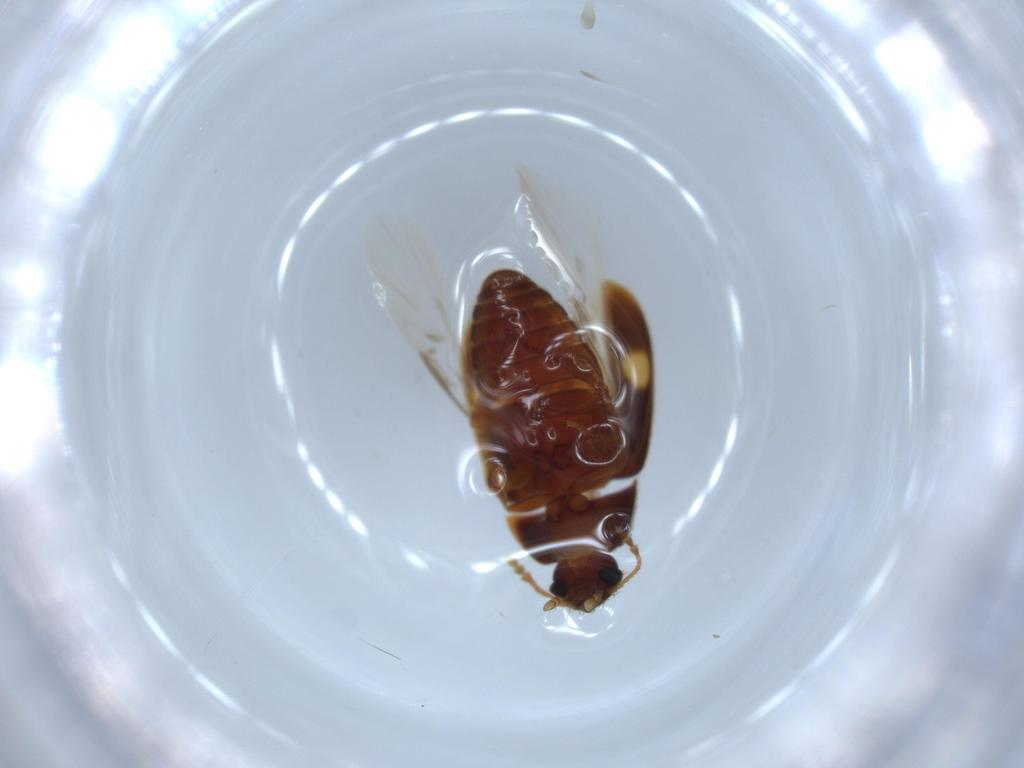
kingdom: Animalia
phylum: Arthropoda
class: Insecta
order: Coleoptera
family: Mycetophagidae
